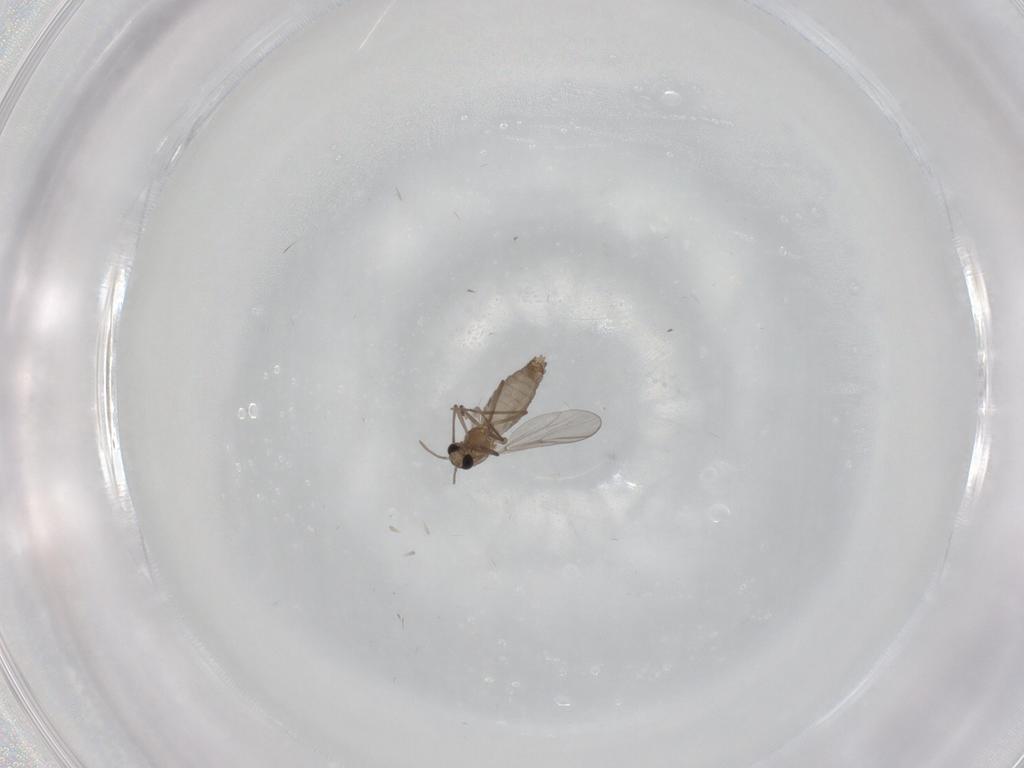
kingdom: Animalia
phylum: Arthropoda
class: Insecta
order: Diptera
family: Chironomidae
